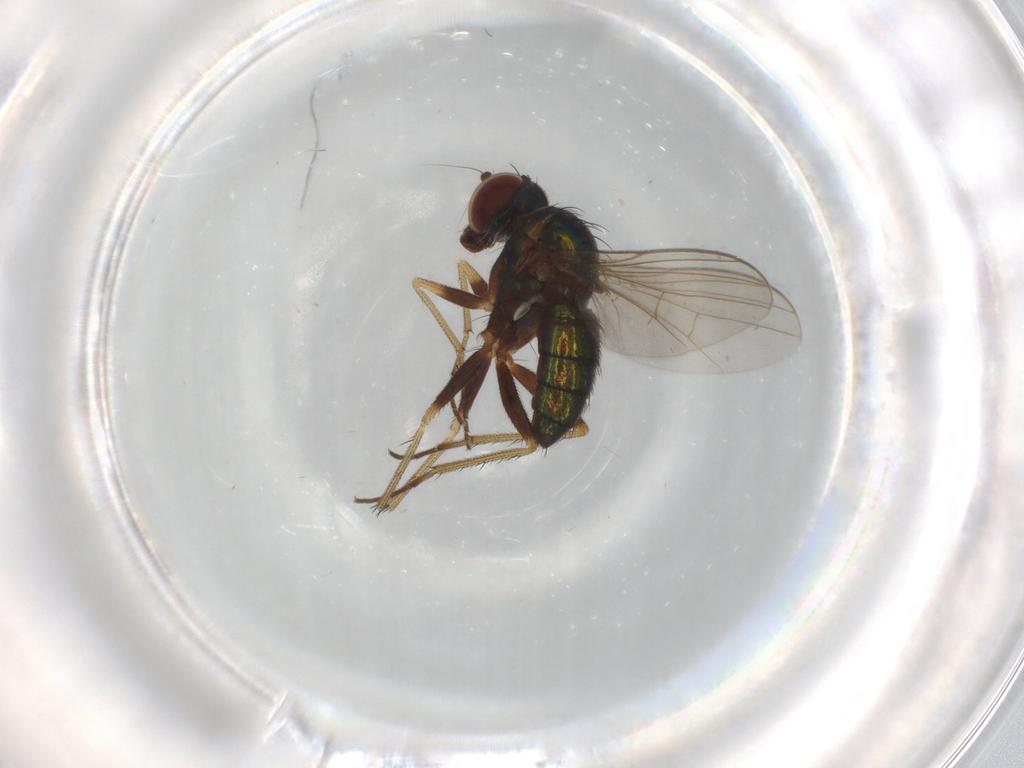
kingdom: Animalia
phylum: Arthropoda
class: Insecta
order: Diptera
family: Dolichopodidae
